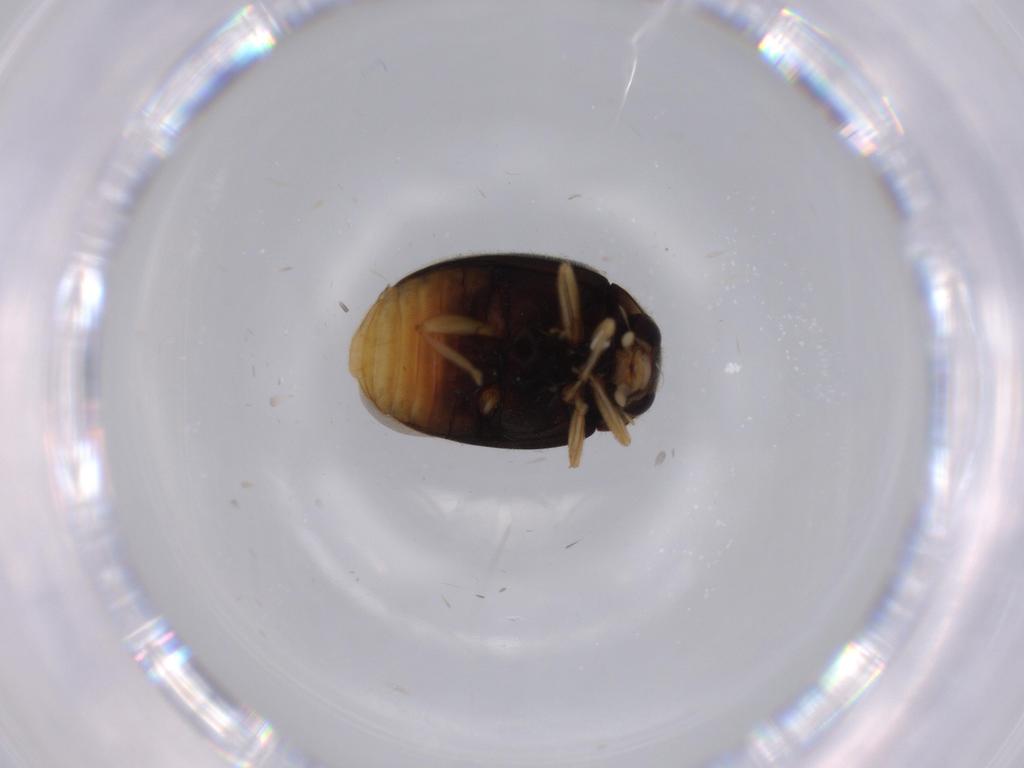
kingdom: Animalia
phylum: Arthropoda
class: Insecta
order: Coleoptera
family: Coccinellidae
